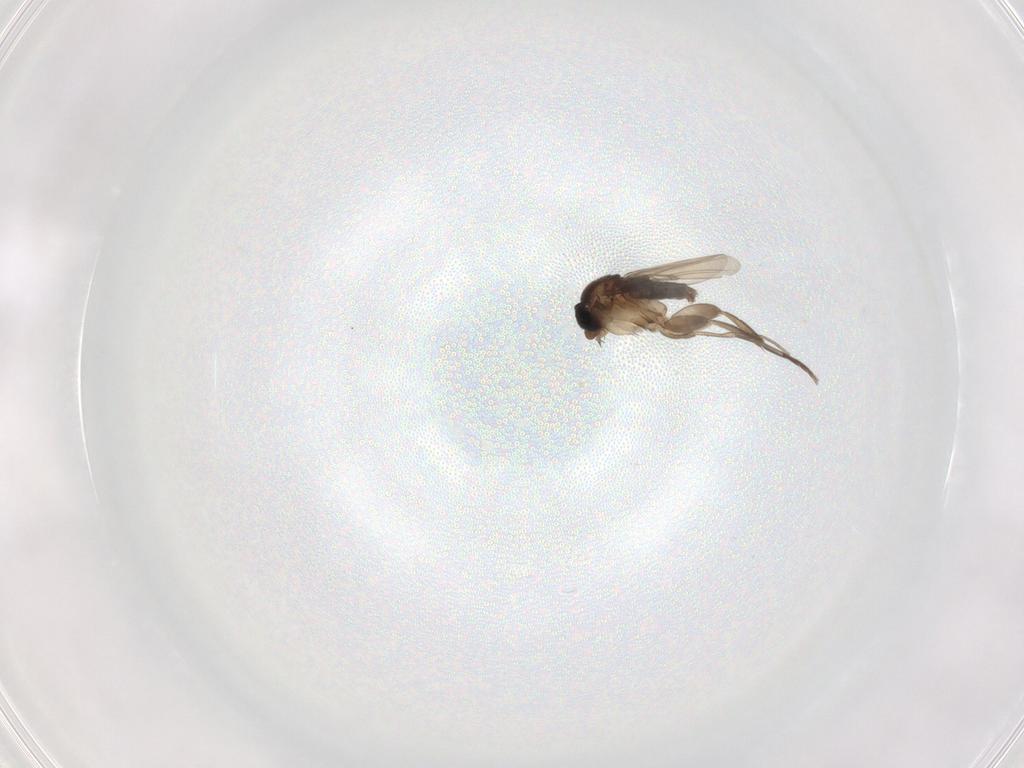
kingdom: Animalia
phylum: Arthropoda
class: Insecta
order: Diptera
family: Phoridae
